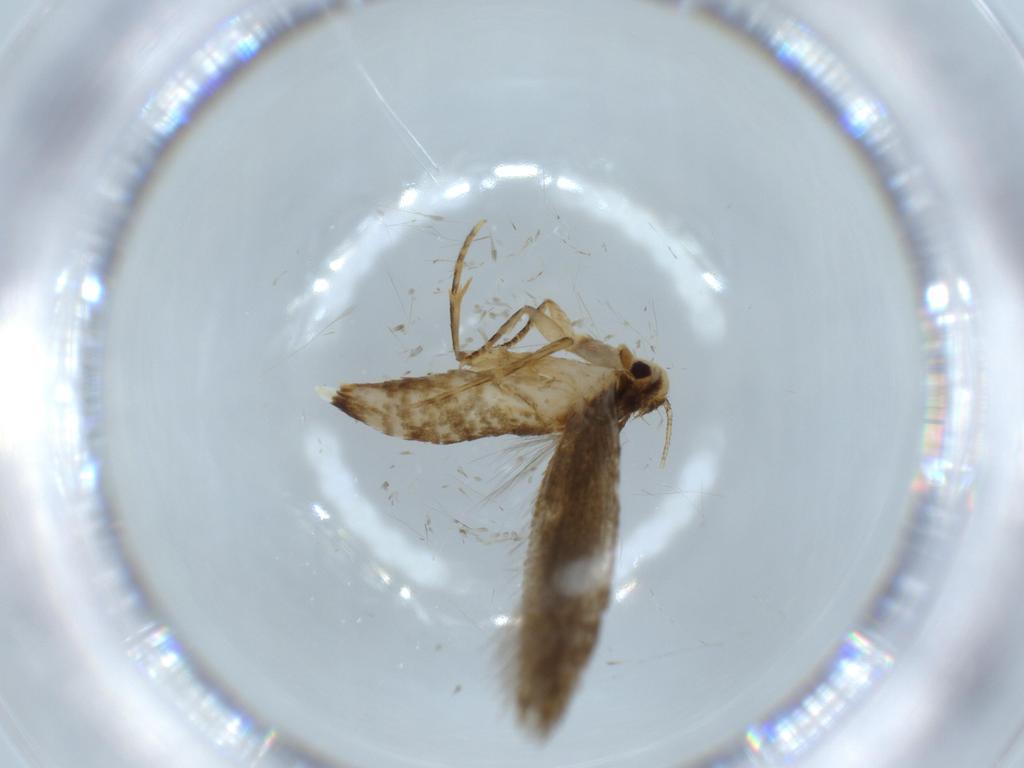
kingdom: Animalia
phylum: Arthropoda
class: Insecta
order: Lepidoptera
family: Tineidae
